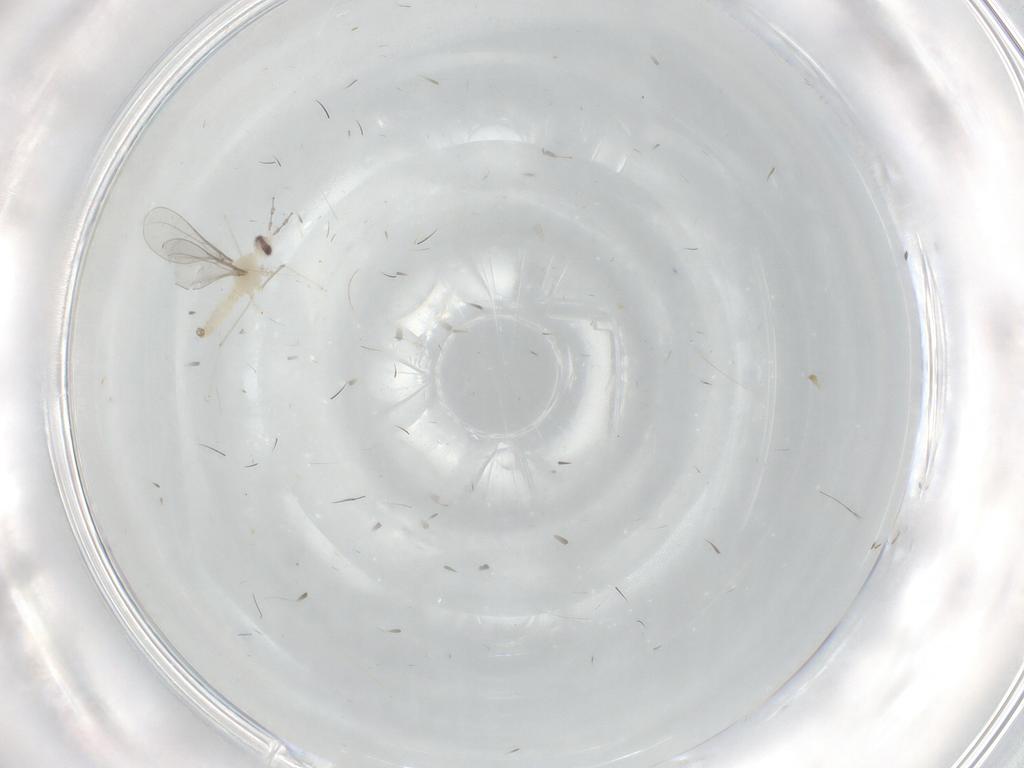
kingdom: Animalia
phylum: Arthropoda
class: Insecta
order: Diptera
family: Cecidomyiidae
